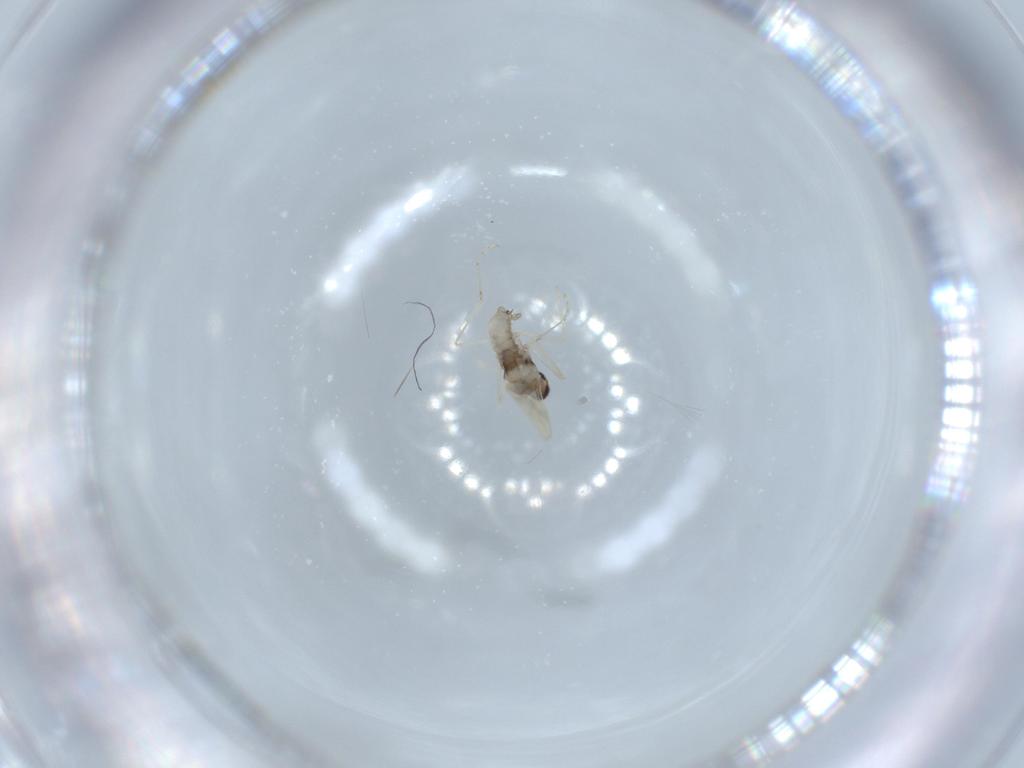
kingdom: Animalia
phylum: Arthropoda
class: Insecta
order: Diptera
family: Cecidomyiidae
